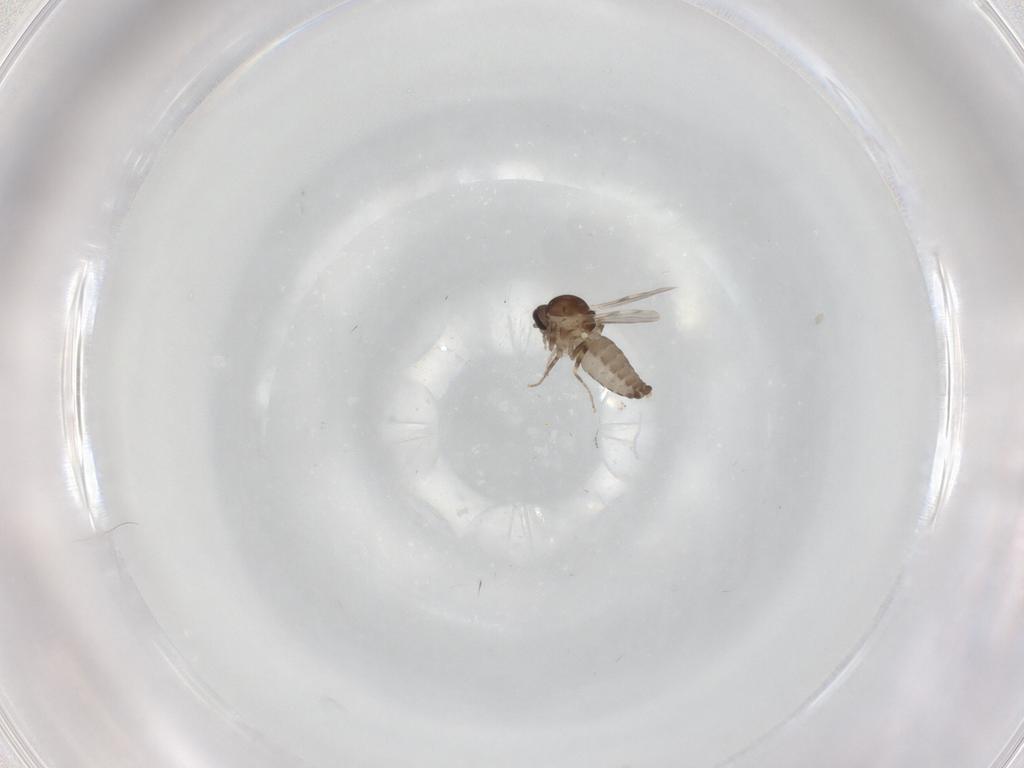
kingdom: Animalia
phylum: Arthropoda
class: Insecta
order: Diptera
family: Ceratopogonidae
